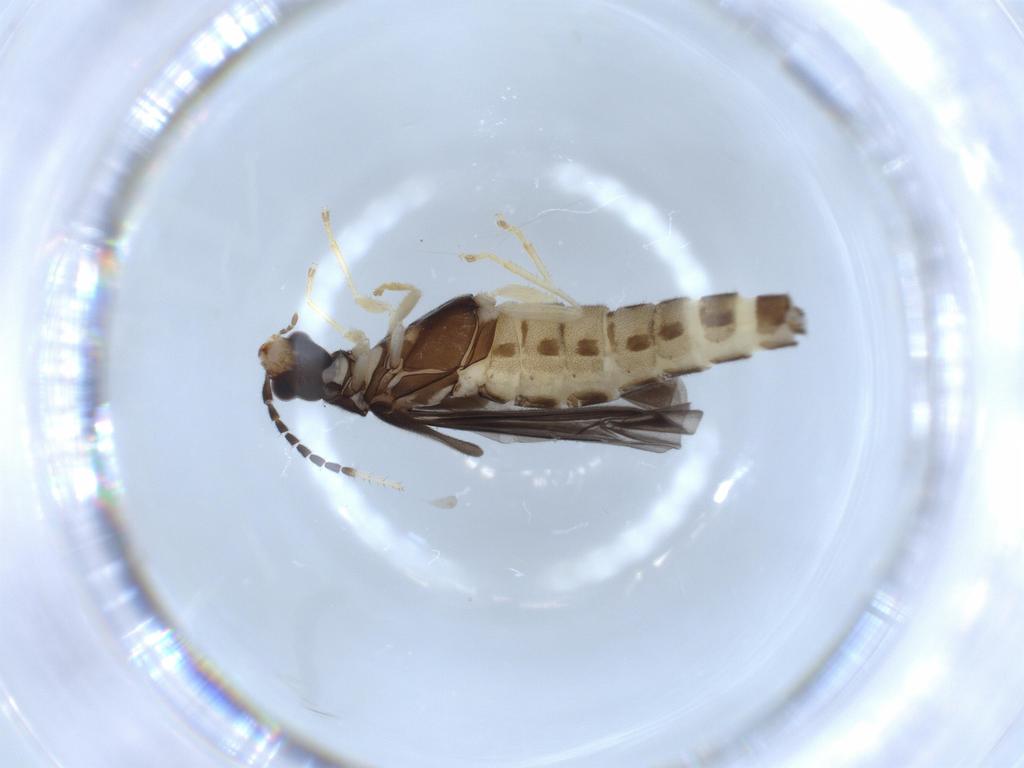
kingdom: Animalia
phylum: Arthropoda
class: Insecta
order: Coleoptera
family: Cantharidae
